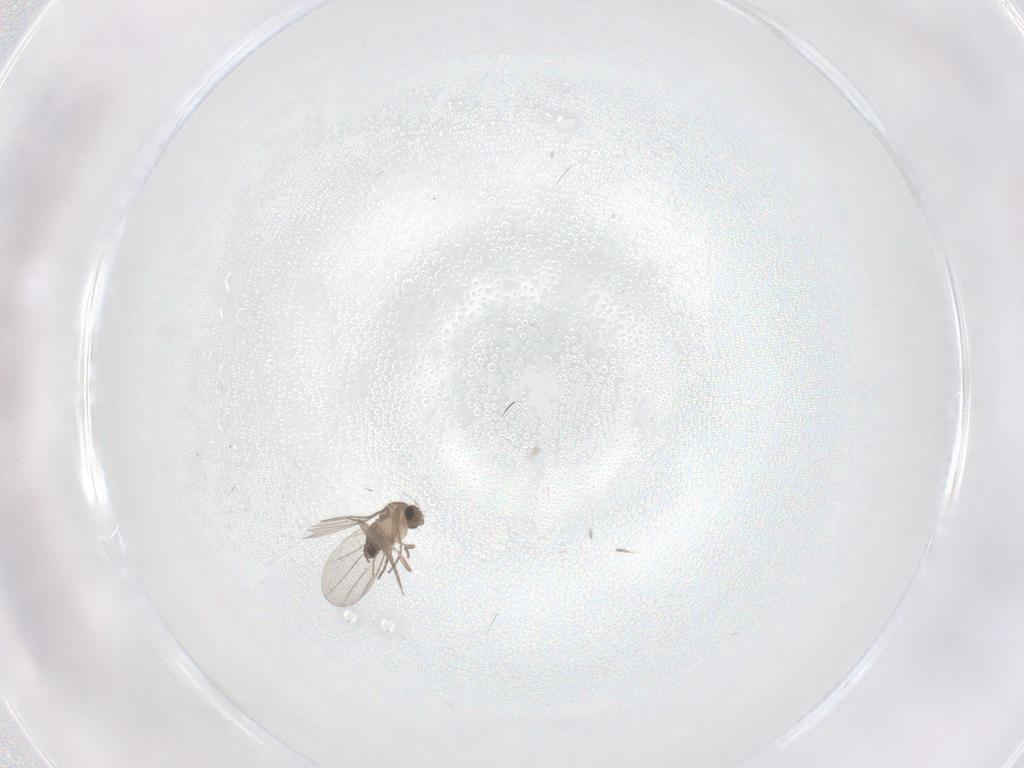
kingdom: Animalia
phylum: Arthropoda
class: Insecta
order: Diptera
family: Phoridae
